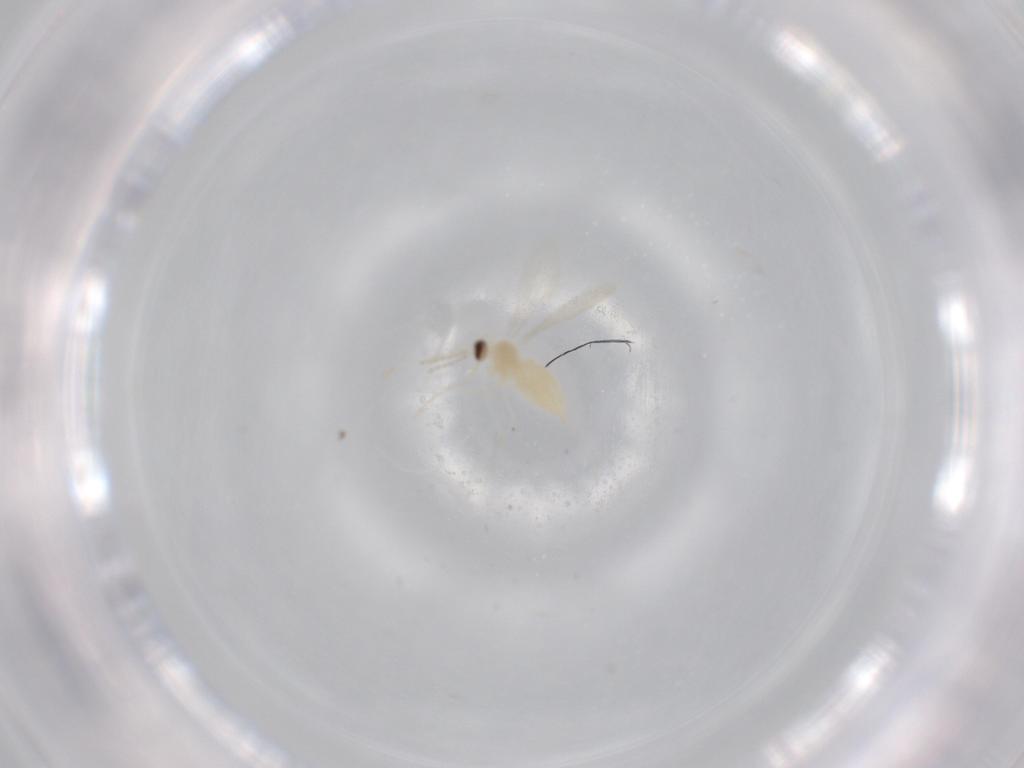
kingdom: Animalia
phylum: Arthropoda
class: Insecta
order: Diptera
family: Cecidomyiidae
